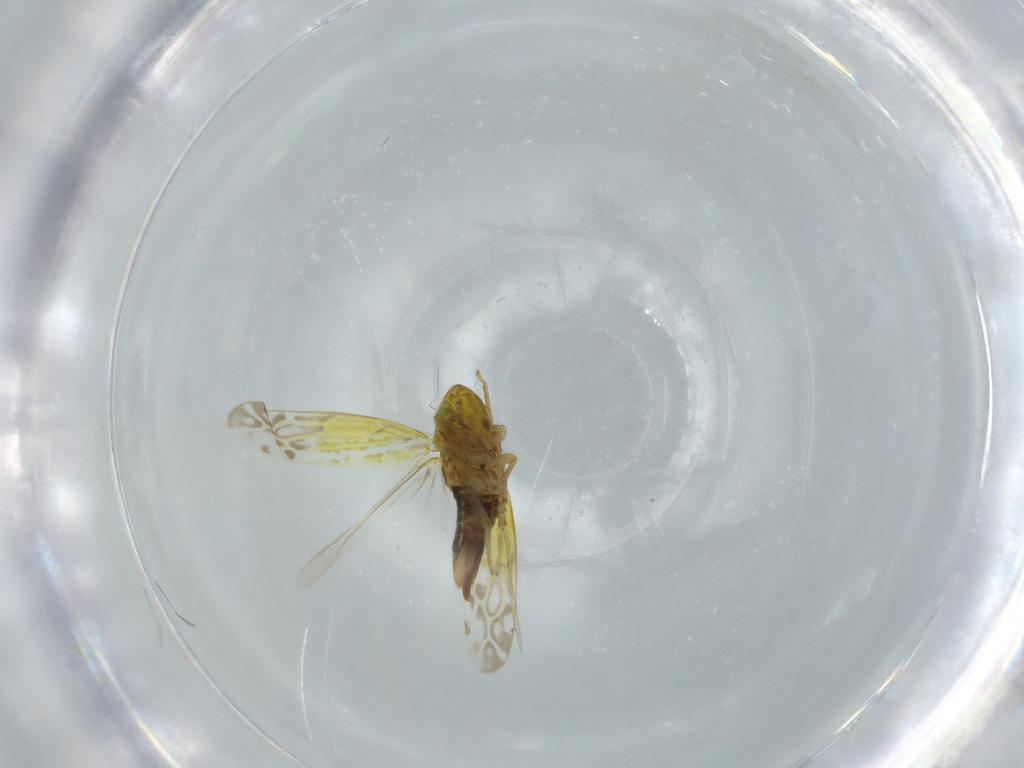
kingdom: Animalia
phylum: Arthropoda
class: Insecta
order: Hemiptera
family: Cicadellidae
